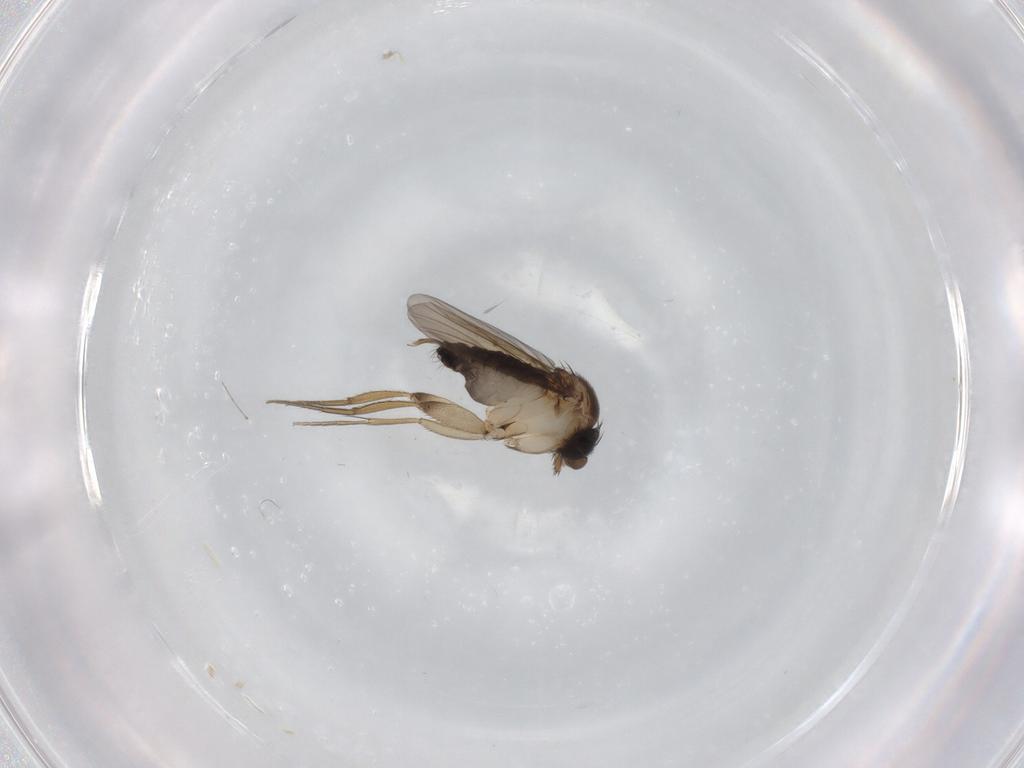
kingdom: Animalia
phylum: Arthropoda
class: Insecta
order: Diptera
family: Phoridae
